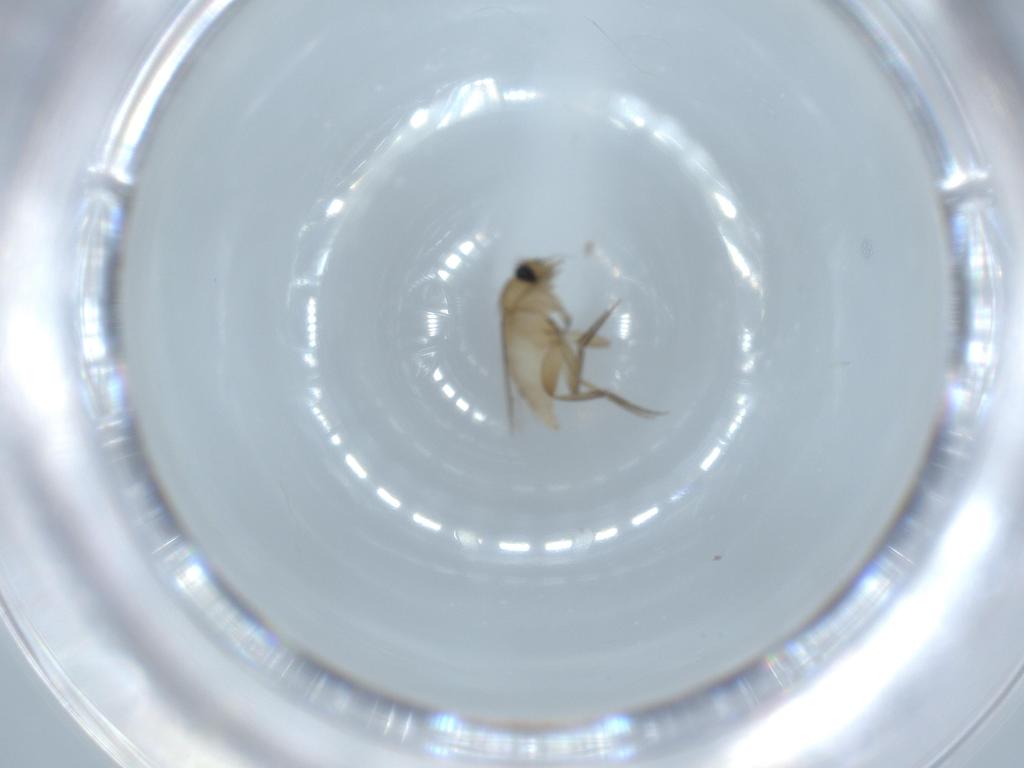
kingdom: Animalia
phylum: Arthropoda
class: Insecta
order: Diptera
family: Phoridae
